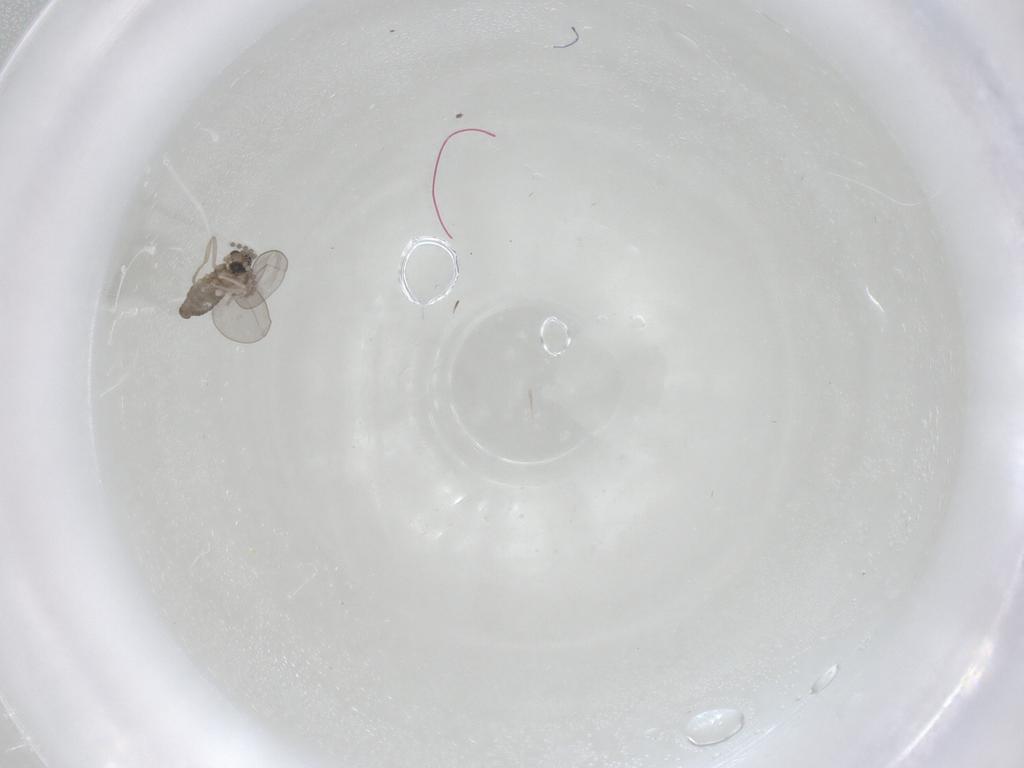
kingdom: Animalia
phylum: Arthropoda
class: Insecta
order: Diptera
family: Cecidomyiidae
